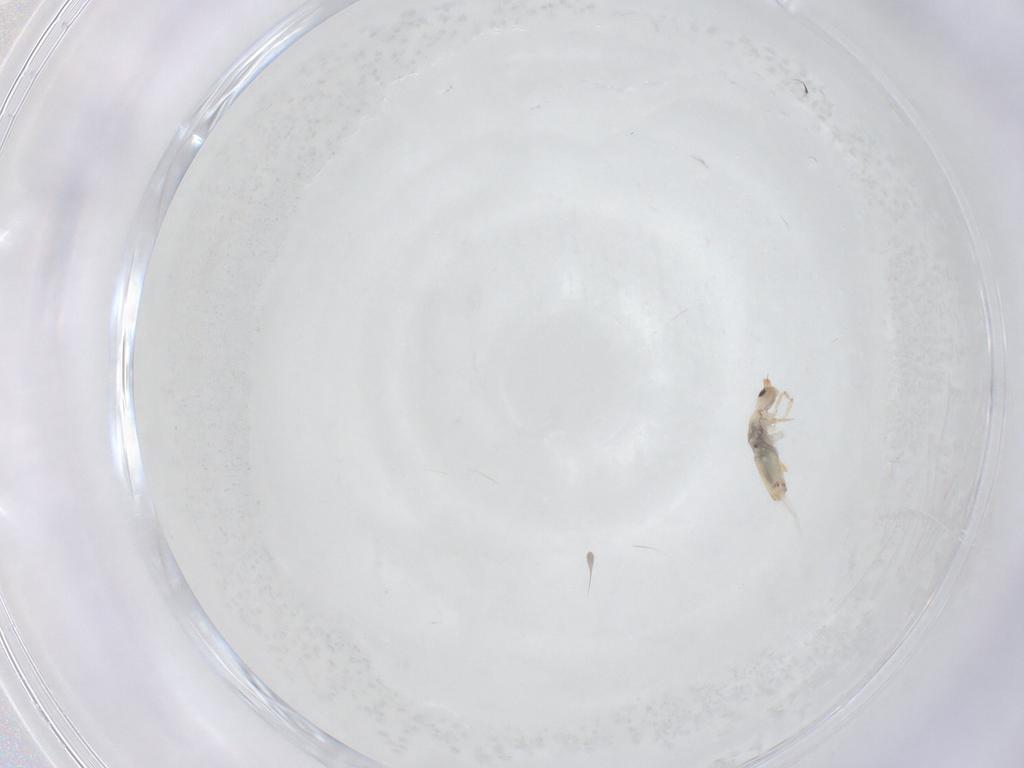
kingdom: Animalia
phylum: Arthropoda
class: Collembola
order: Entomobryomorpha
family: Entomobryidae
